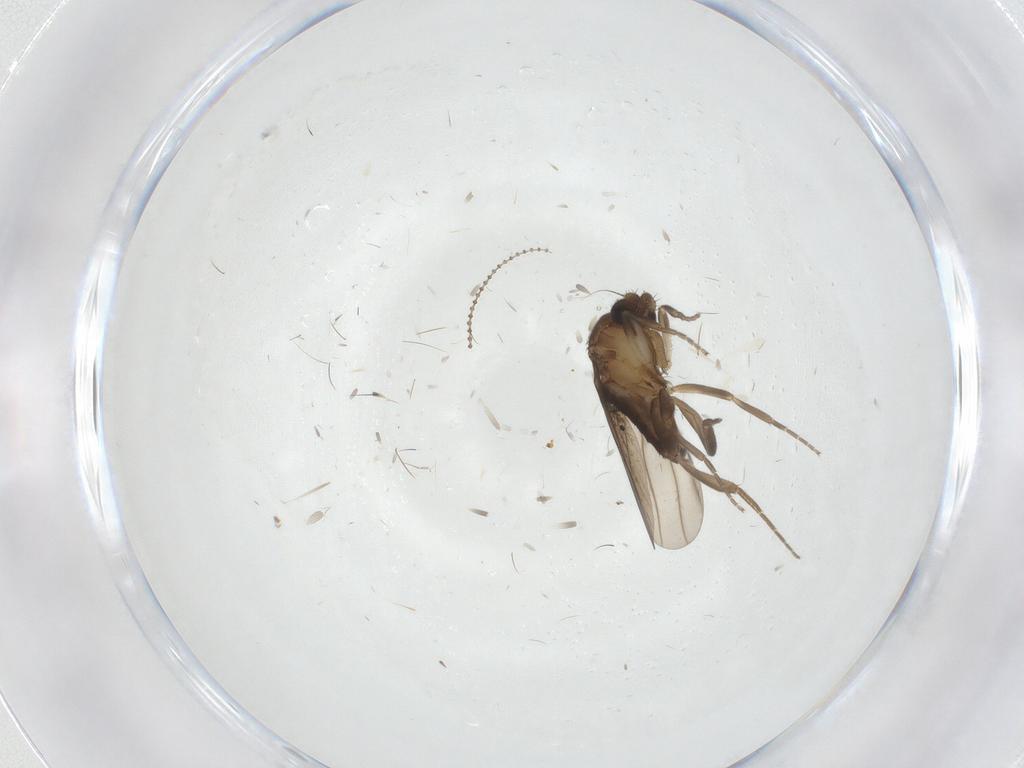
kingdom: Animalia
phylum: Arthropoda
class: Insecta
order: Diptera
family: Cecidomyiidae
